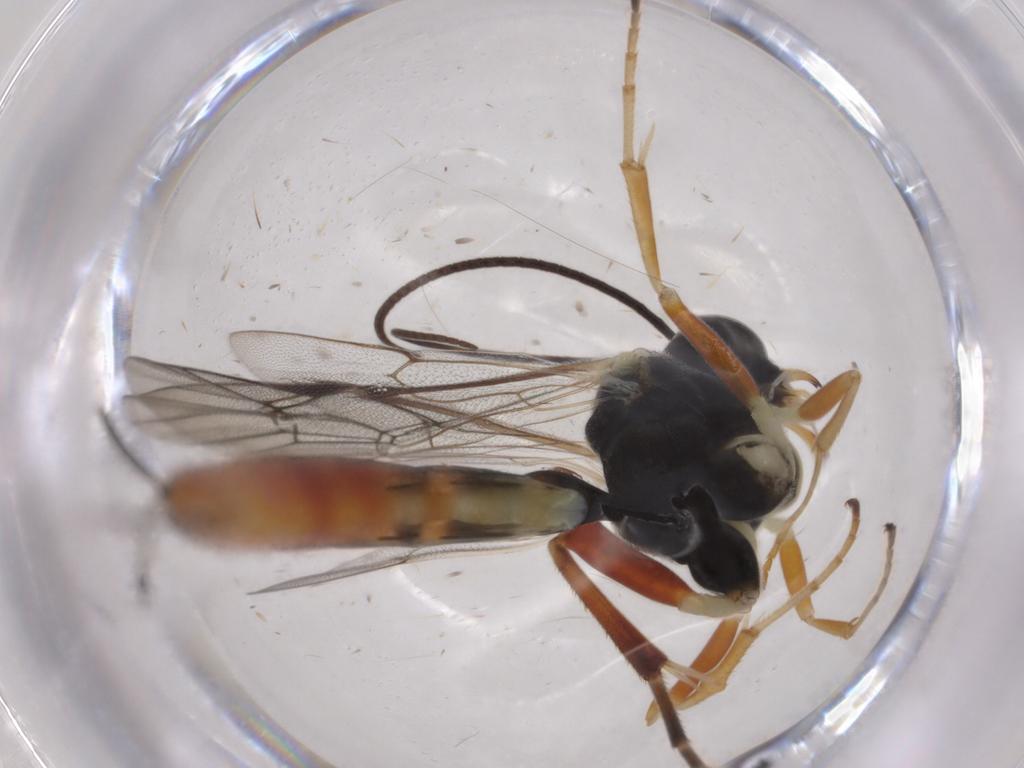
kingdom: Animalia
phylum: Arthropoda
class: Insecta
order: Hymenoptera
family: Ichneumonidae
